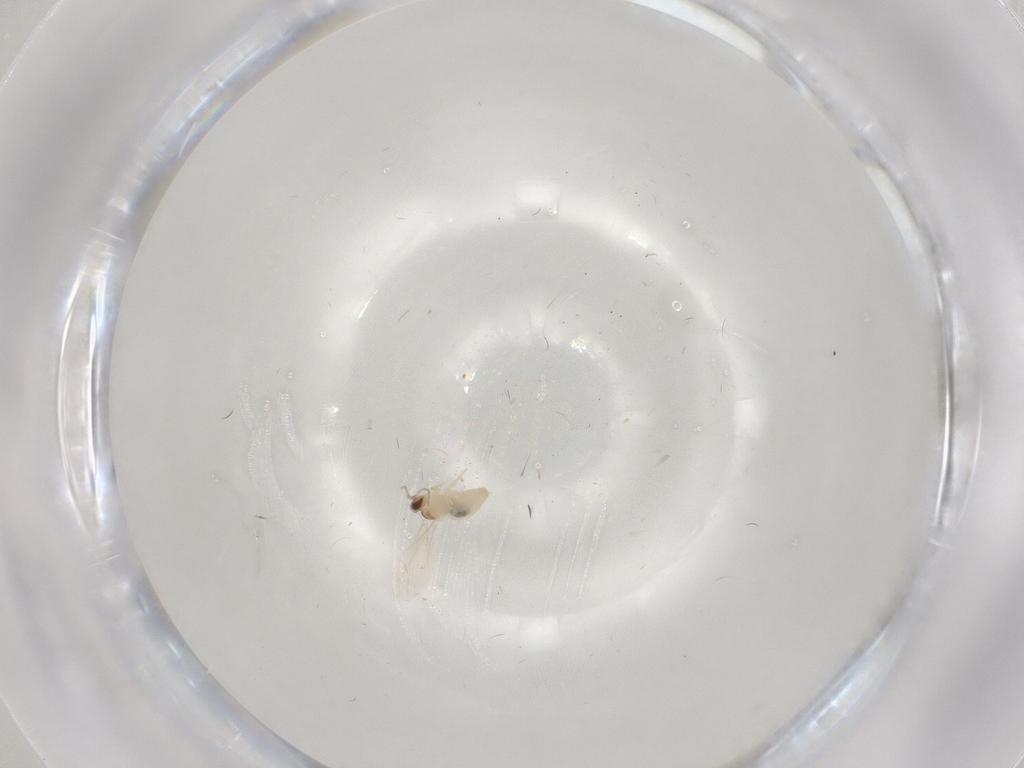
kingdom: Animalia
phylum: Arthropoda
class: Insecta
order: Diptera
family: Cecidomyiidae
